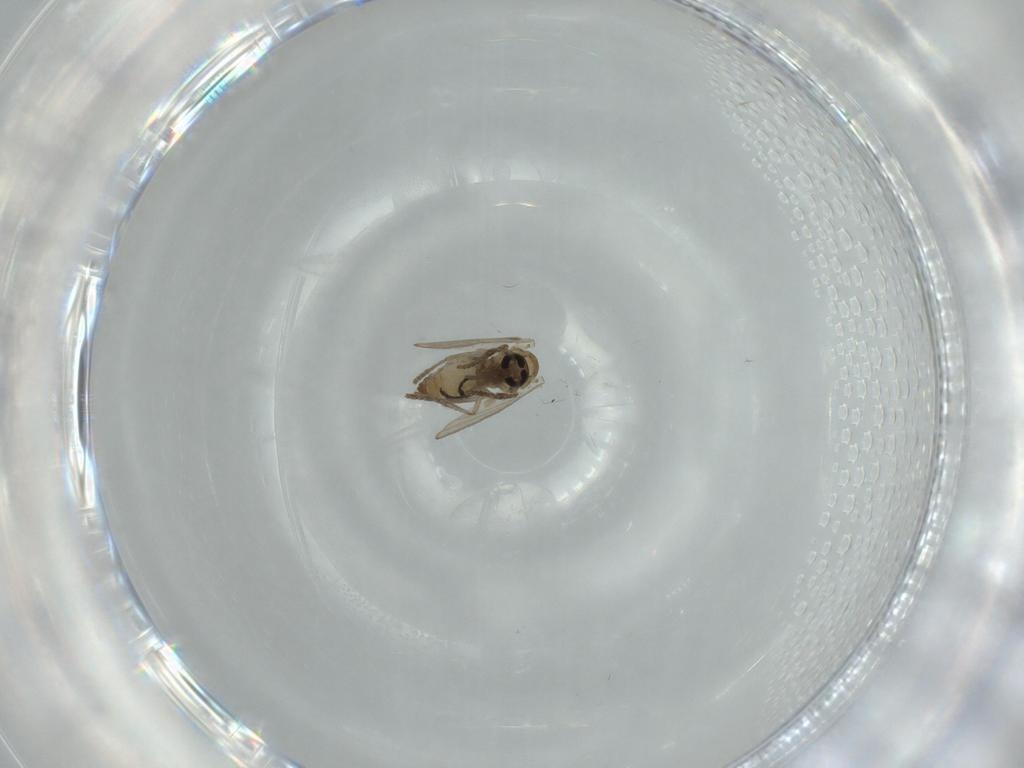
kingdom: Animalia
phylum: Arthropoda
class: Insecta
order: Diptera
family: Psychodidae
